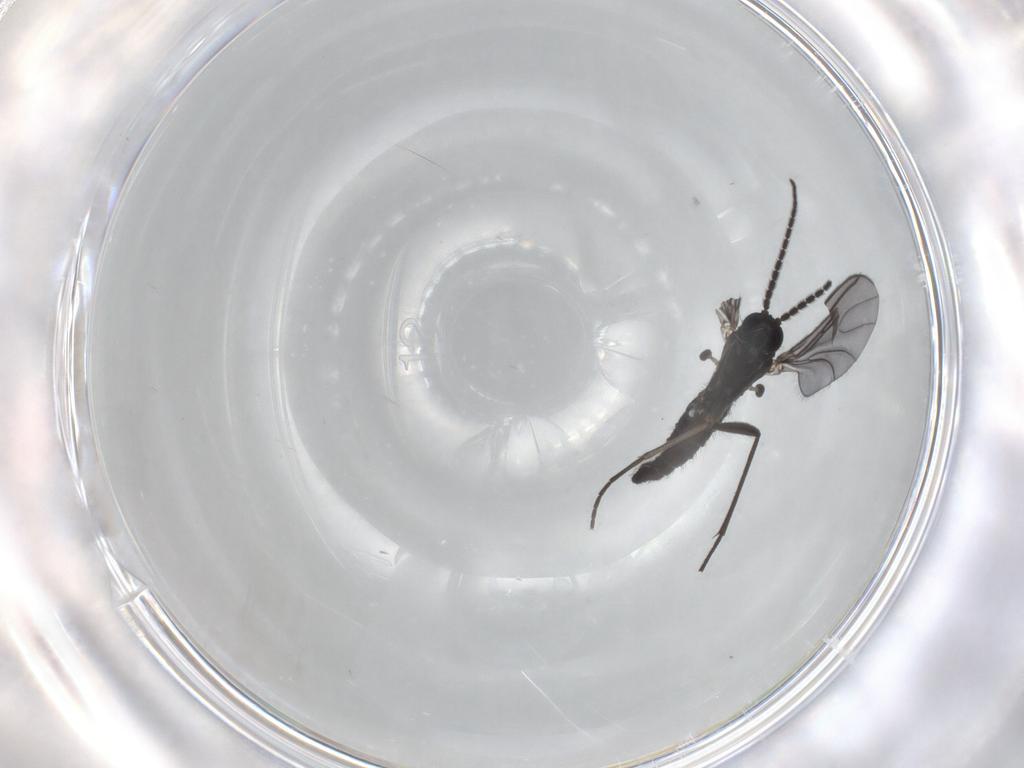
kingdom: Animalia
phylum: Arthropoda
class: Insecta
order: Diptera
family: Sciaridae
